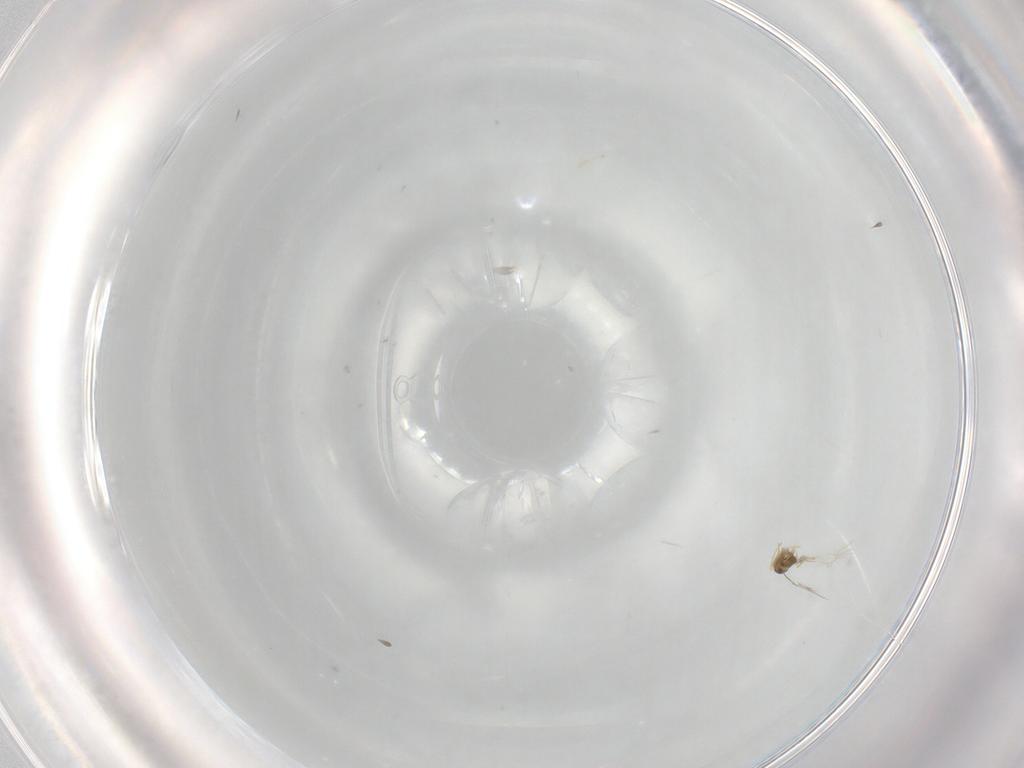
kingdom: Animalia
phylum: Arthropoda
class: Insecta
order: Hymenoptera
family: Mymaridae
